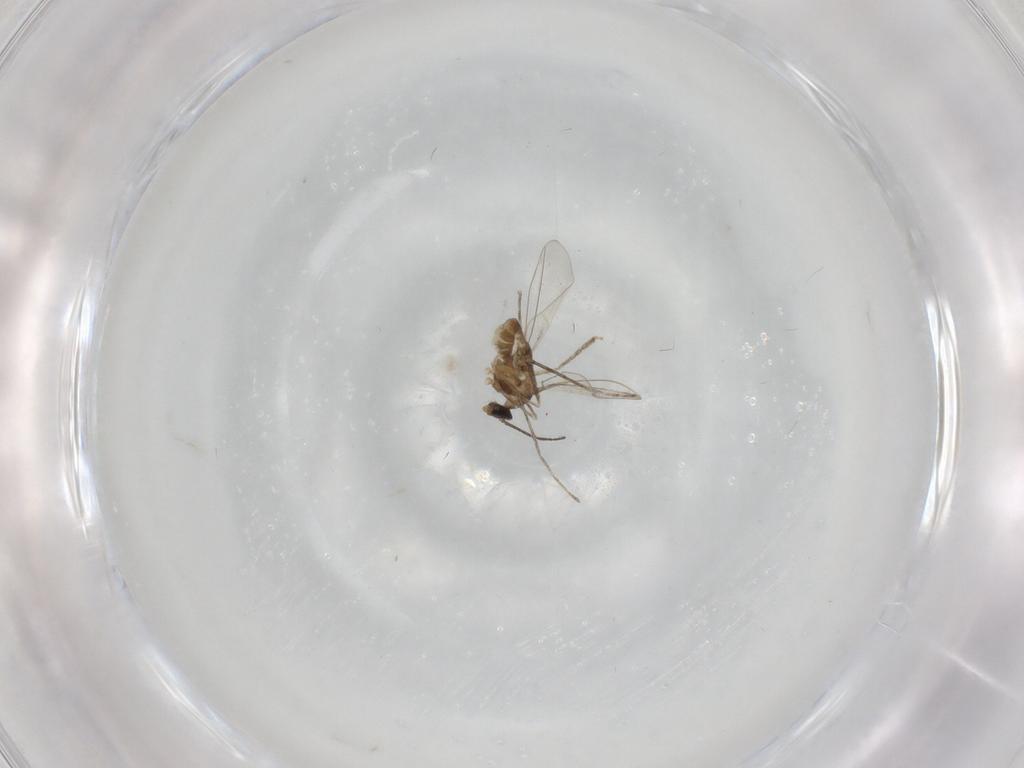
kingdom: Animalia
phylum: Arthropoda
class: Insecta
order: Diptera
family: Cecidomyiidae
